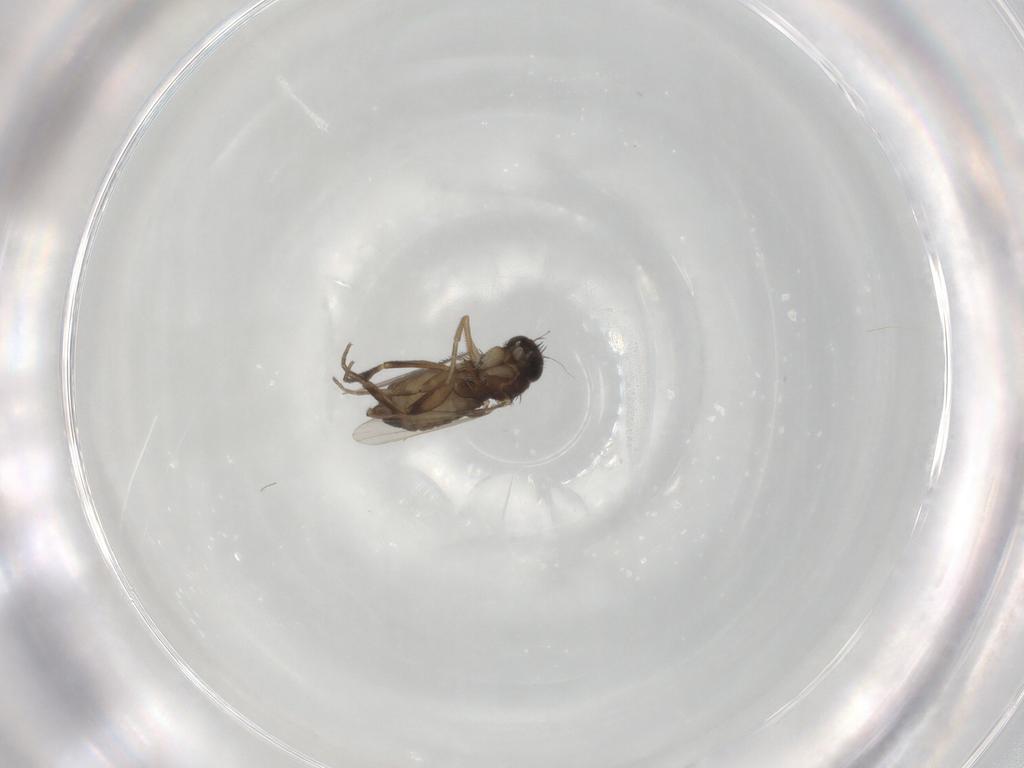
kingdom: Animalia
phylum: Arthropoda
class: Insecta
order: Diptera
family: Phoridae
